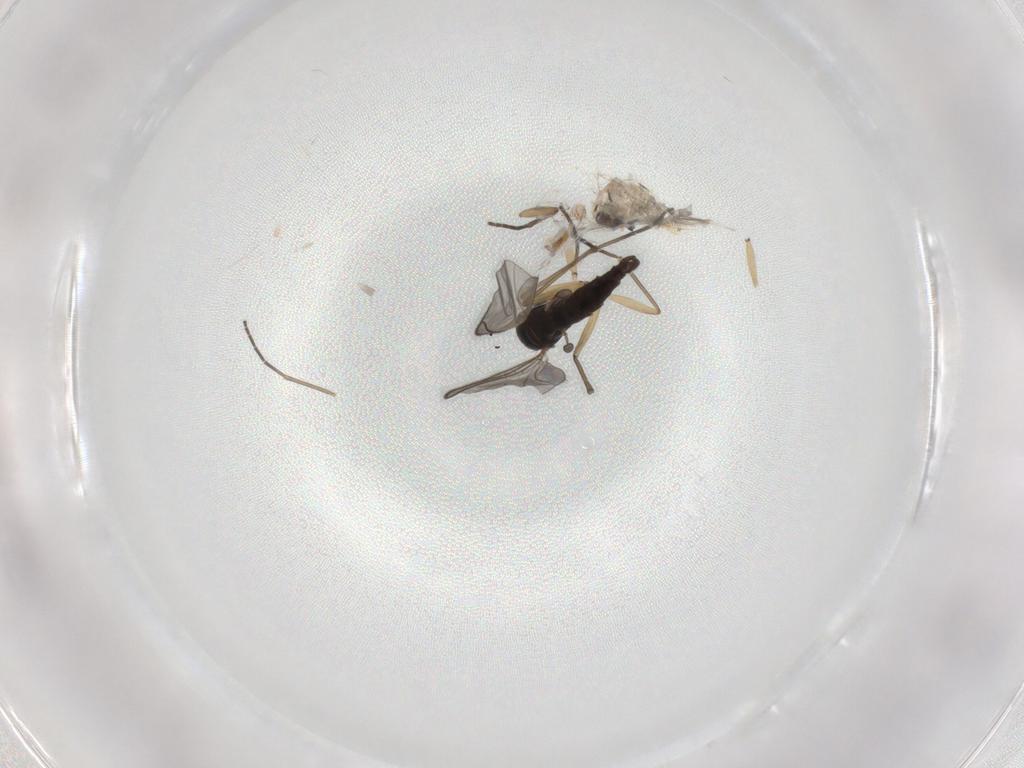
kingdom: Animalia
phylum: Arthropoda
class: Insecta
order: Diptera
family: Sciaridae
